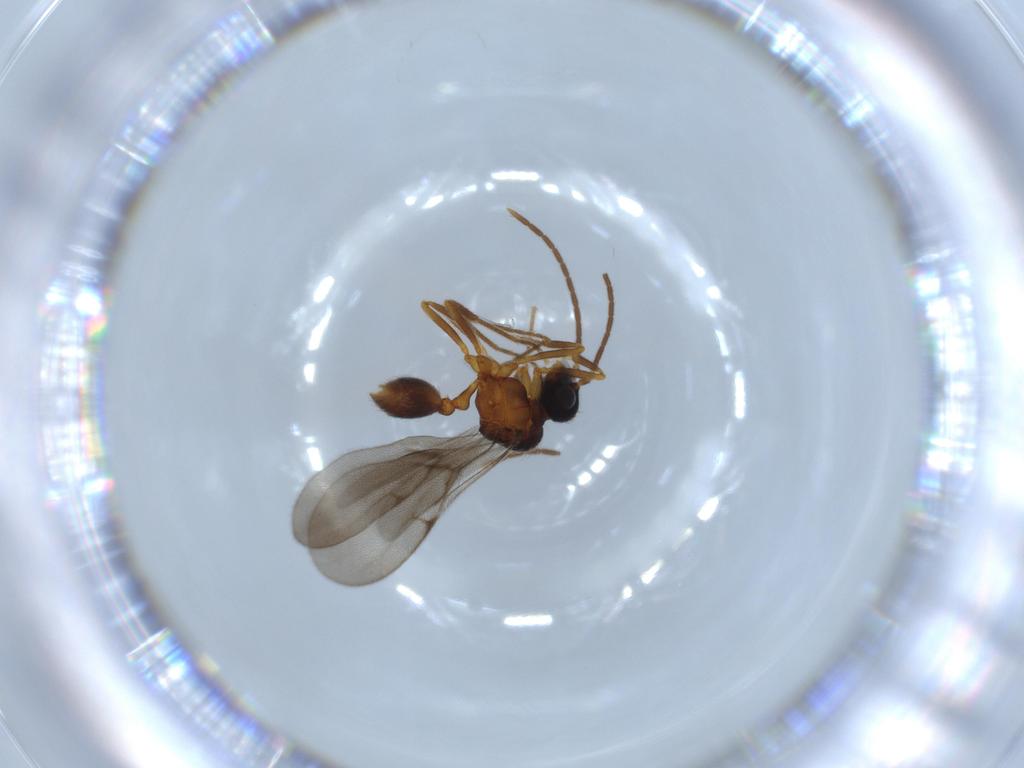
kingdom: Animalia
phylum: Arthropoda
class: Insecta
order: Hymenoptera
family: Formicidae
